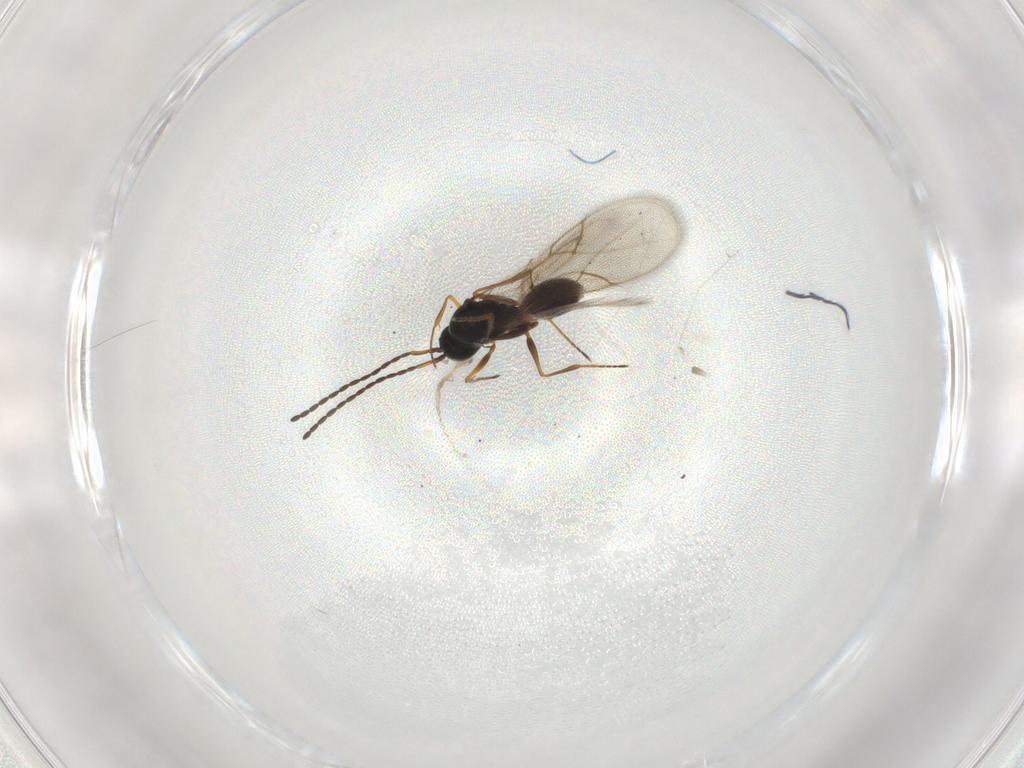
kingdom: Animalia
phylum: Arthropoda
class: Insecta
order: Hymenoptera
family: Figitidae
